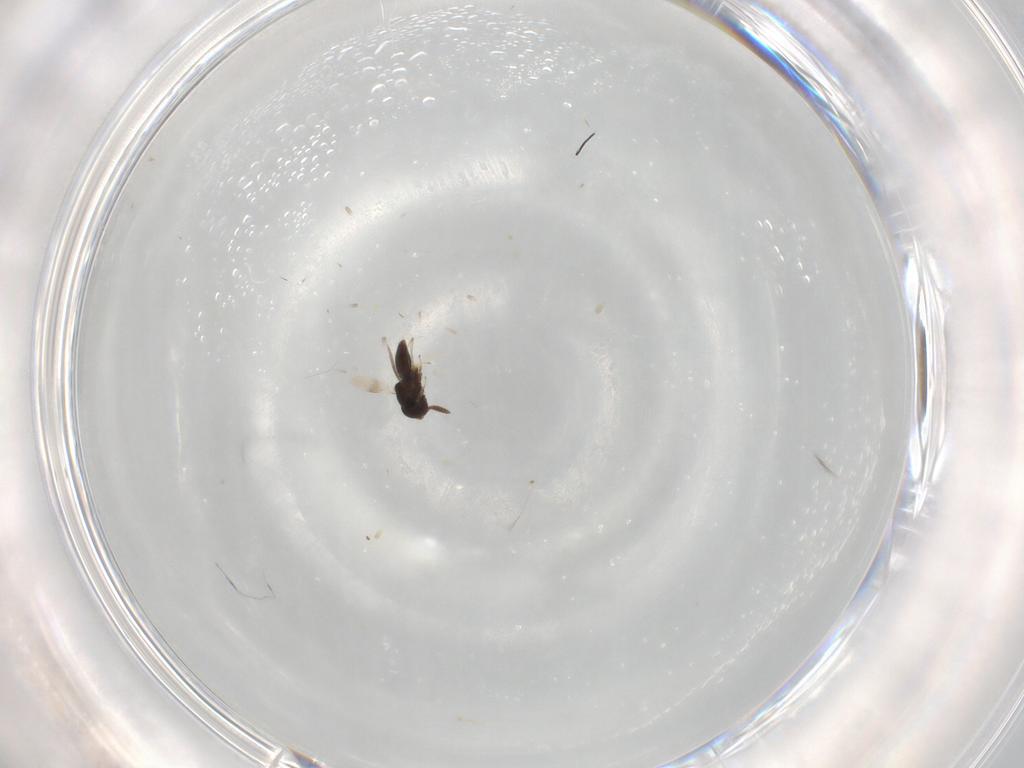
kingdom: Animalia
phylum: Arthropoda
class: Insecta
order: Hymenoptera
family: Scelionidae
